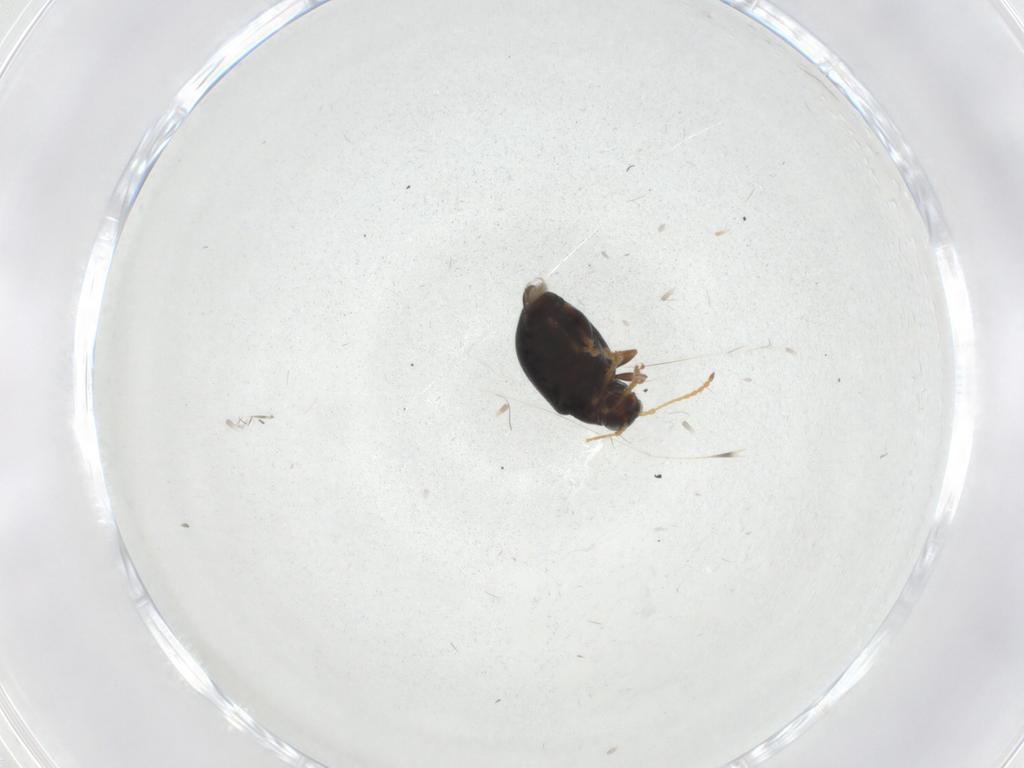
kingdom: Animalia
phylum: Arthropoda
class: Insecta
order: Coleoptera
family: Chrysomelidae
